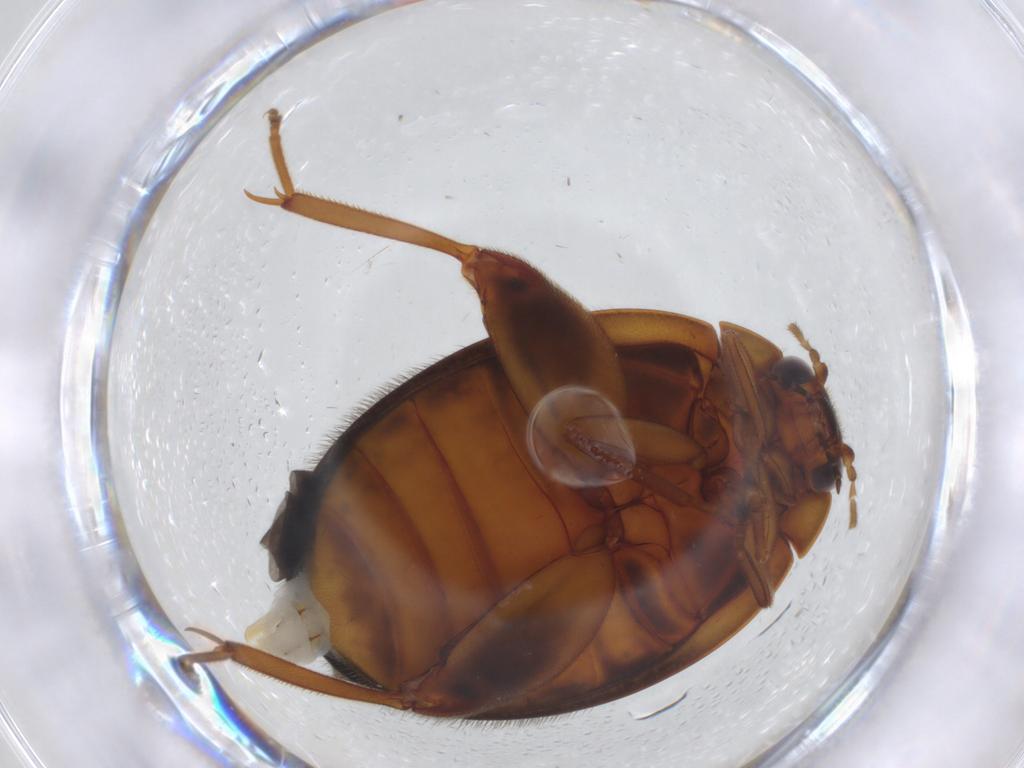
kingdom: Animalia
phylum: Arthropoda
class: Insecta
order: Coleoptera
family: Scirtidae
